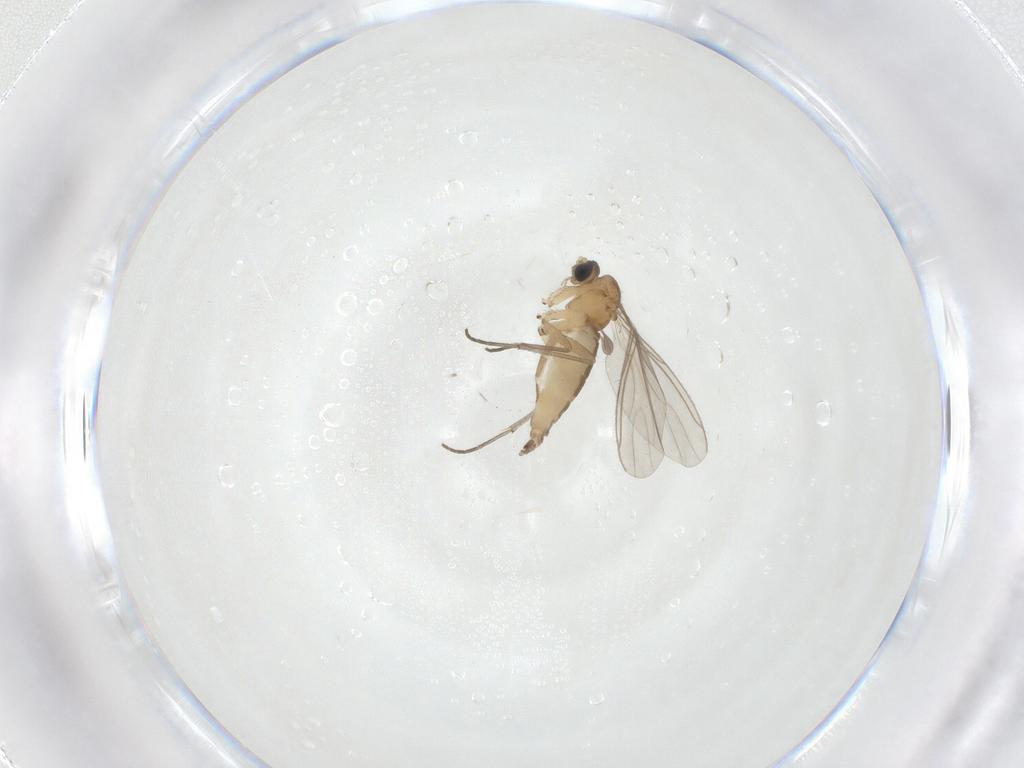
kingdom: Animalia
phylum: Arthropoda
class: Insecta
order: Diptera
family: Sciaridae
